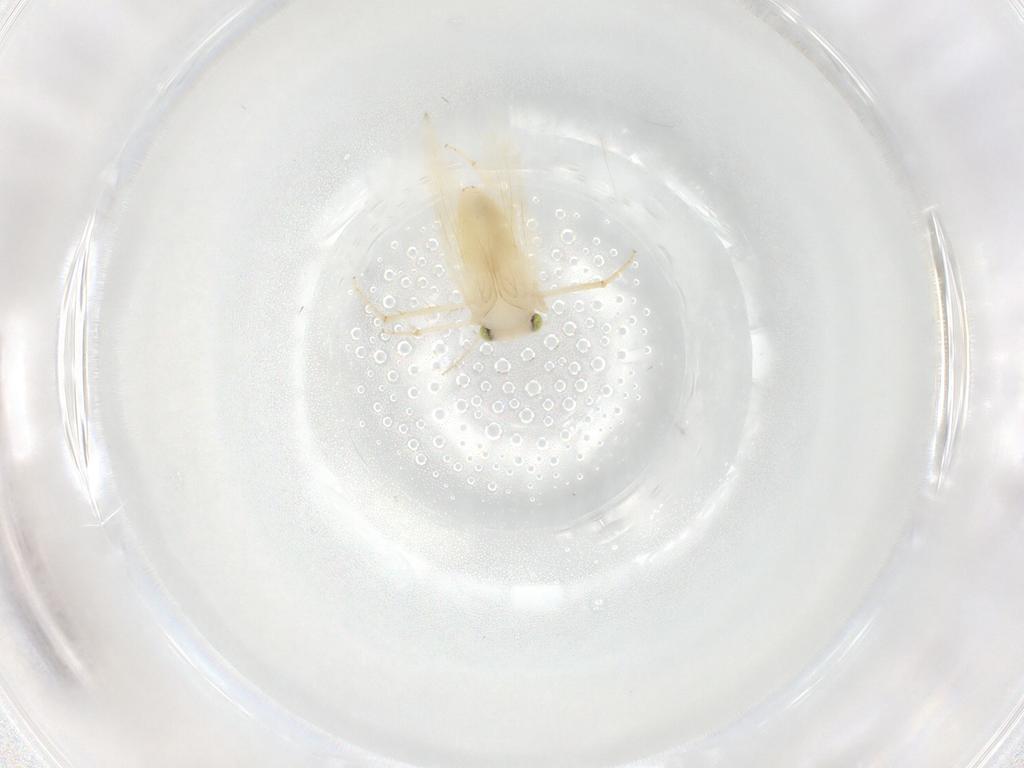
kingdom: Animalia
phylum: Arthropoda
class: Insecta
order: Psocodea
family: Lepidopsocidae
